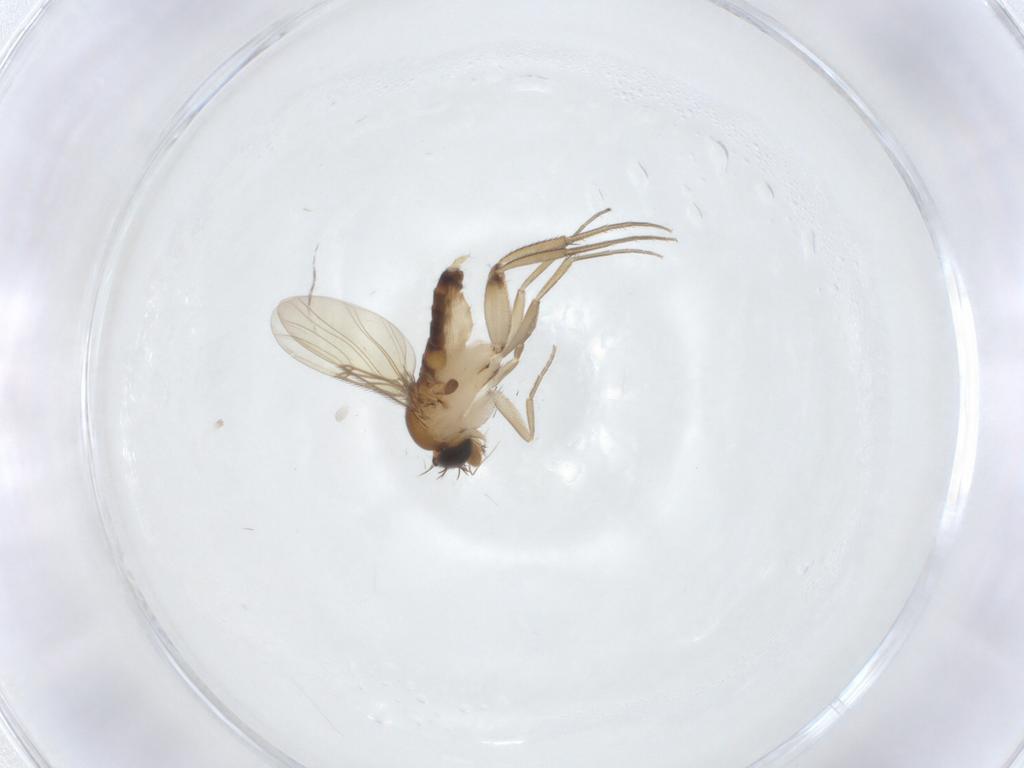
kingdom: Animalia
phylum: Arthropoda
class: Insecta
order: Diptera
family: Phoridae
